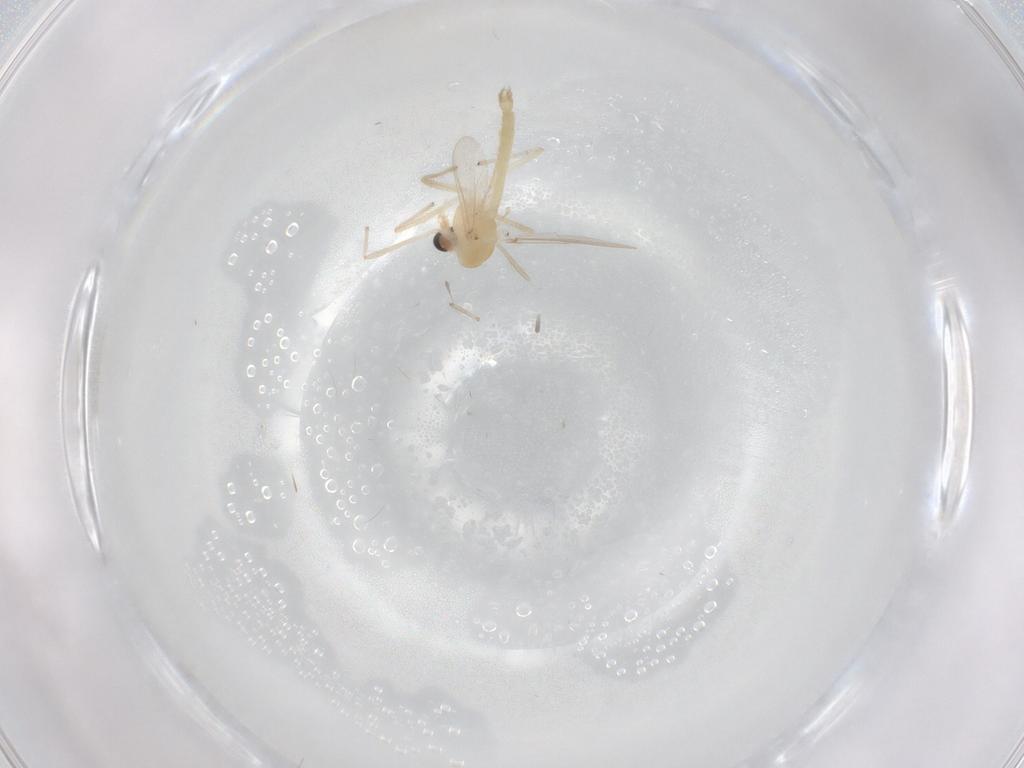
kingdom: Animalia
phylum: Arthropoda
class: Insecta
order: Diptera
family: Chironomidae
